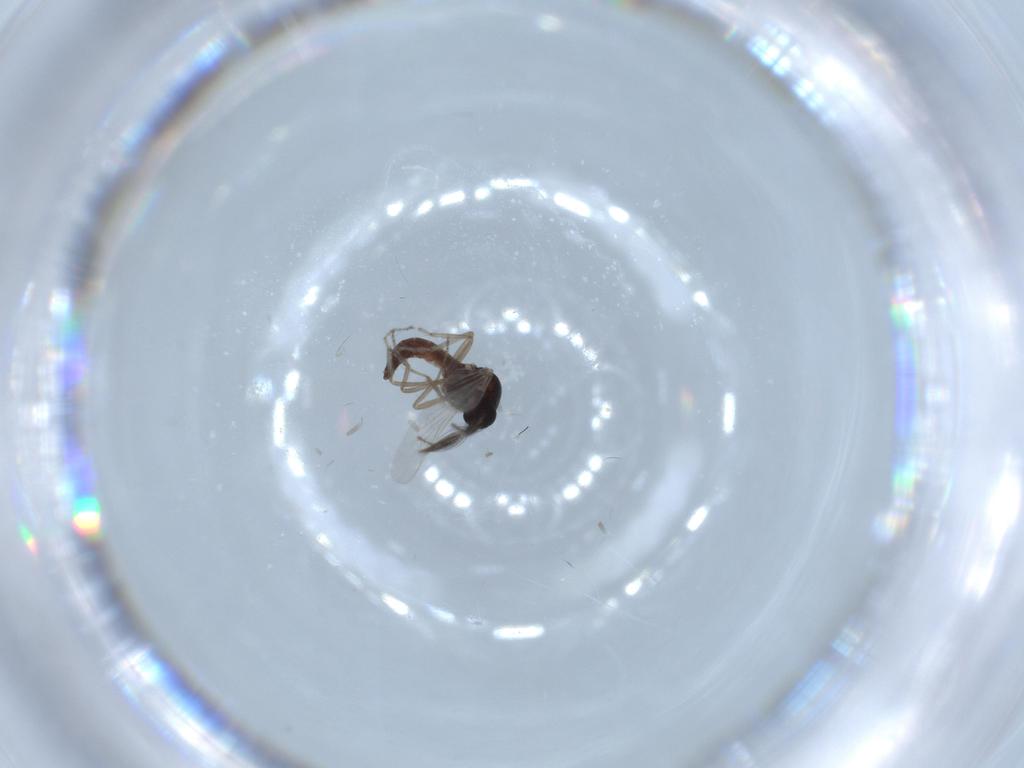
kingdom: Animalia
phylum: Arthropoda
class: Insecta
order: Diptera
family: Ceratopogonidae
